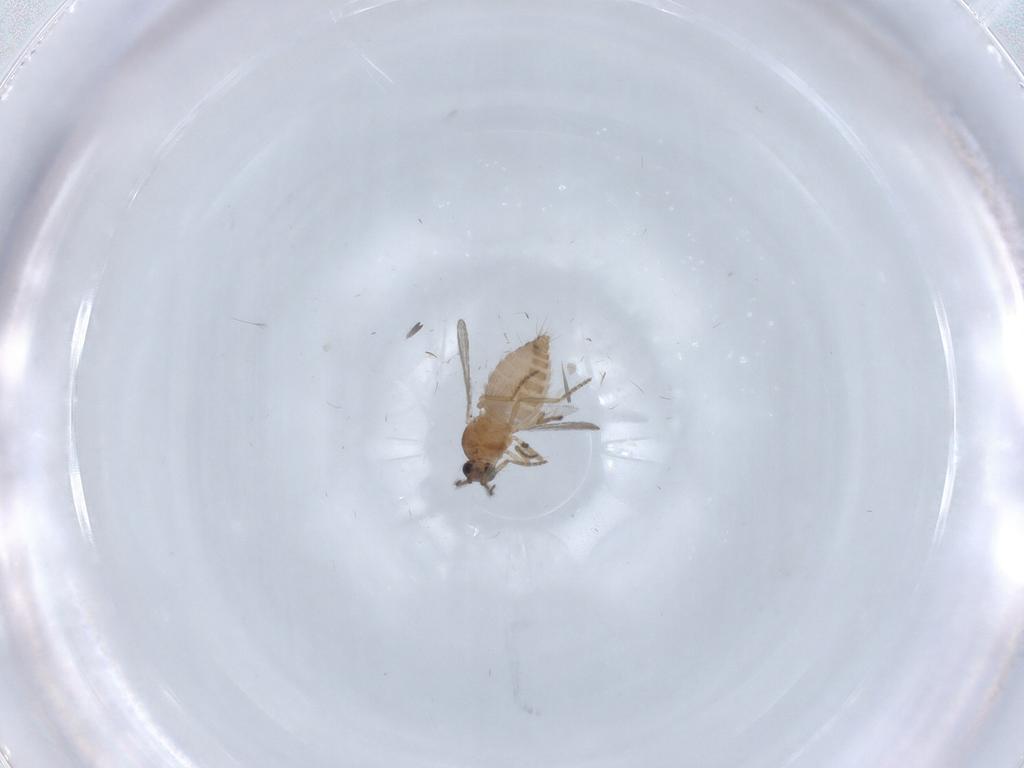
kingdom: Animalia
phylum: Arthropoda
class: Insecta
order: Diptera
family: Ceratopogonidae
